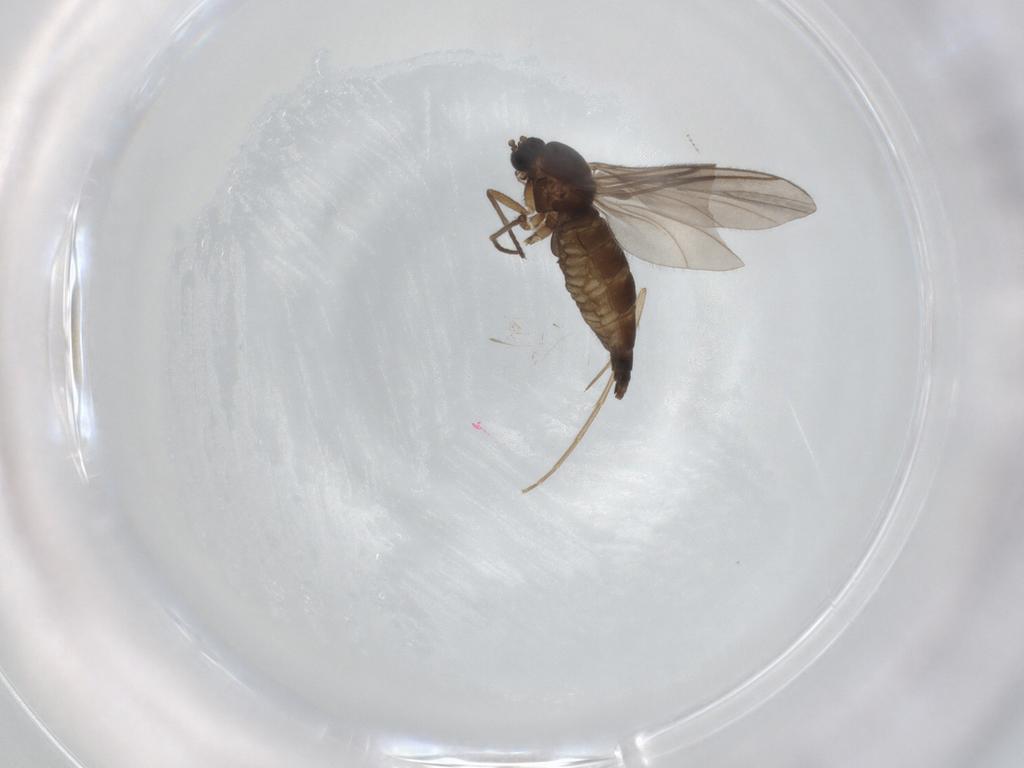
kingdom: Animalia
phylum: Arthropoda
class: Insecta
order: Diptera
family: Sciaridae
